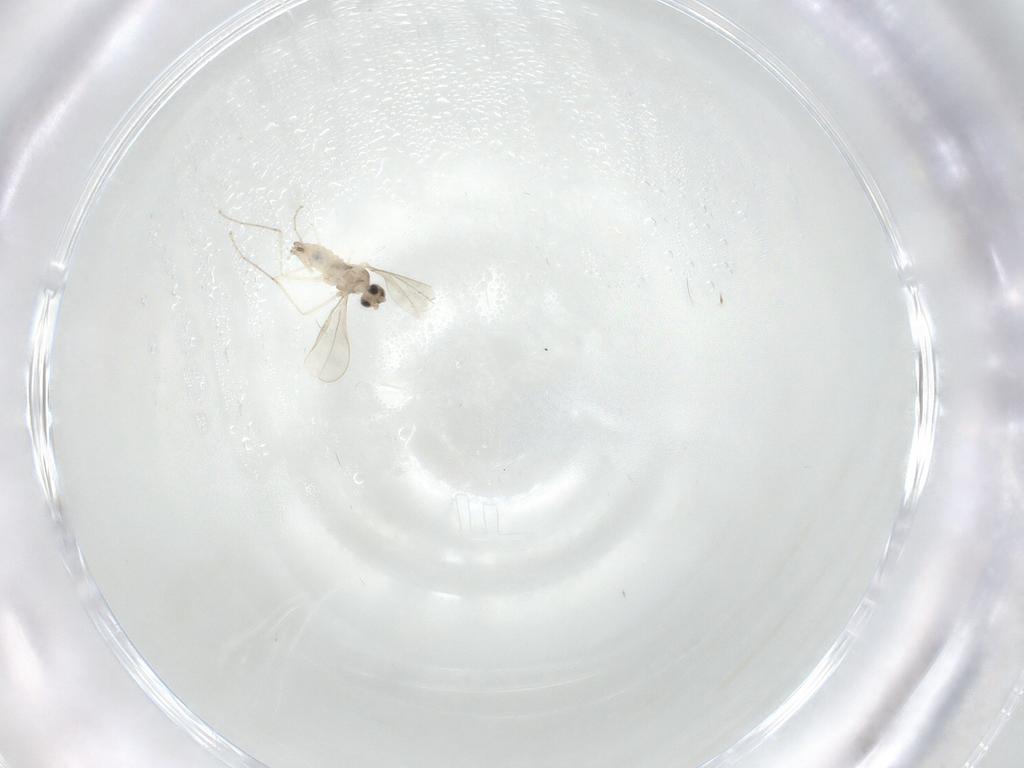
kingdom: Animalia
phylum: Arthropoda
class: Insecta
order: Diptera
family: Cecidomyiidae
